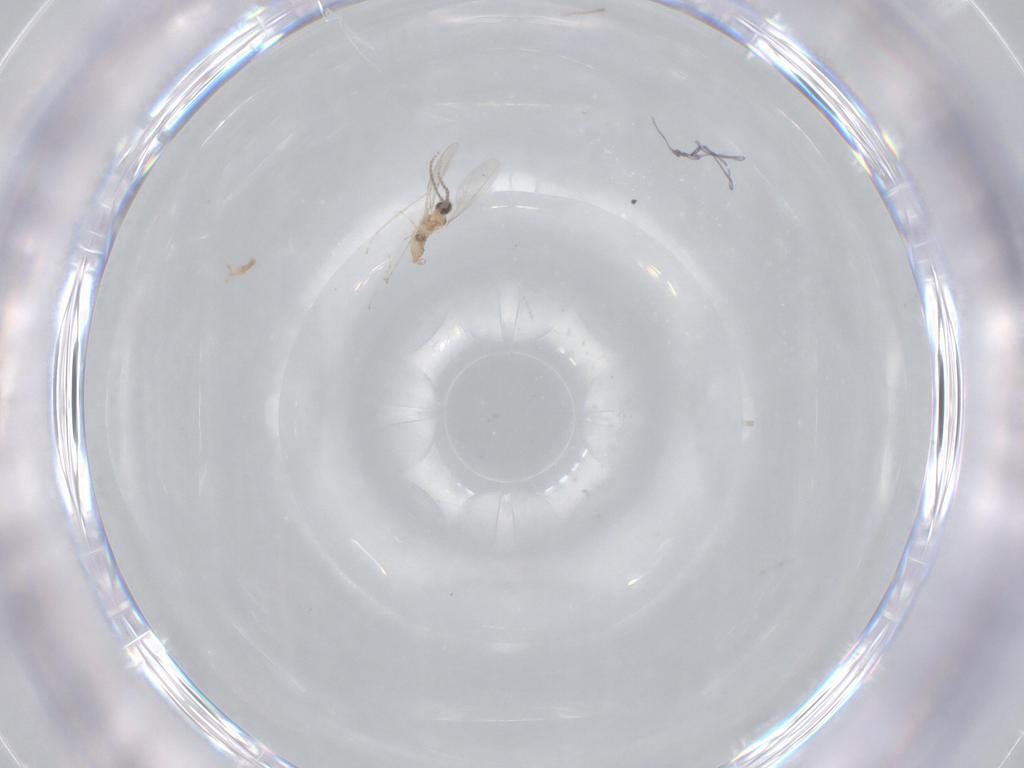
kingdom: Animalia
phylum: Arthropoda
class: Insecta
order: Diptera
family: Cecidomyiidae
